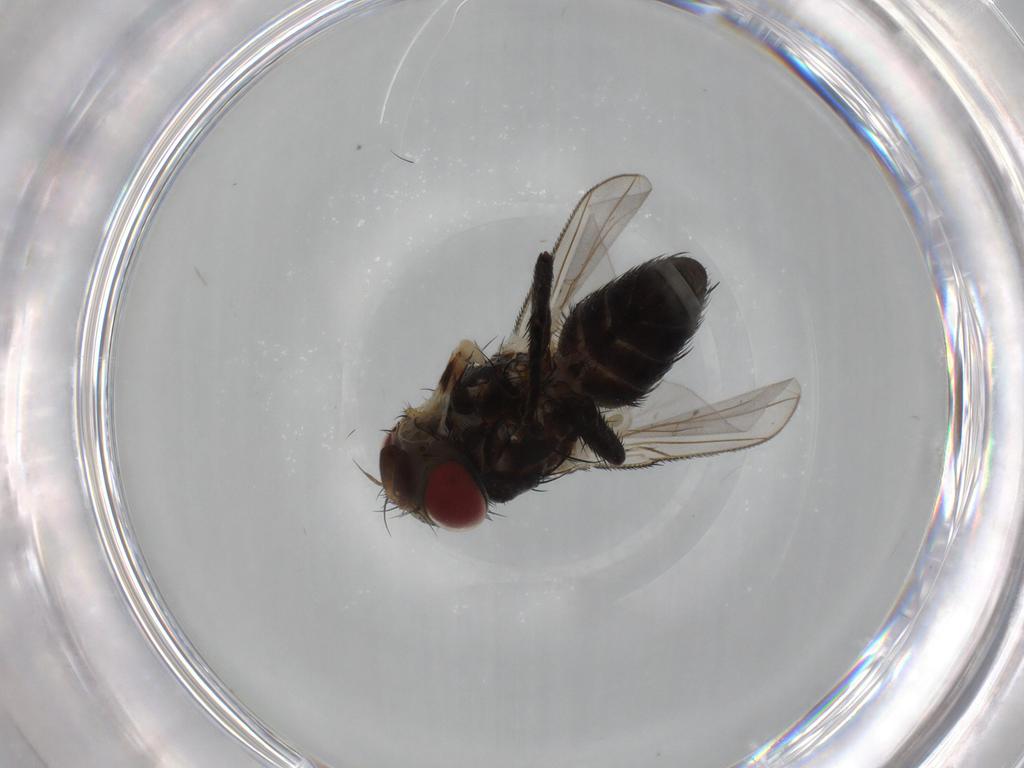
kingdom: Animalia
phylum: Arthropoda
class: Insecta
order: Diptera
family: Tachinidae
